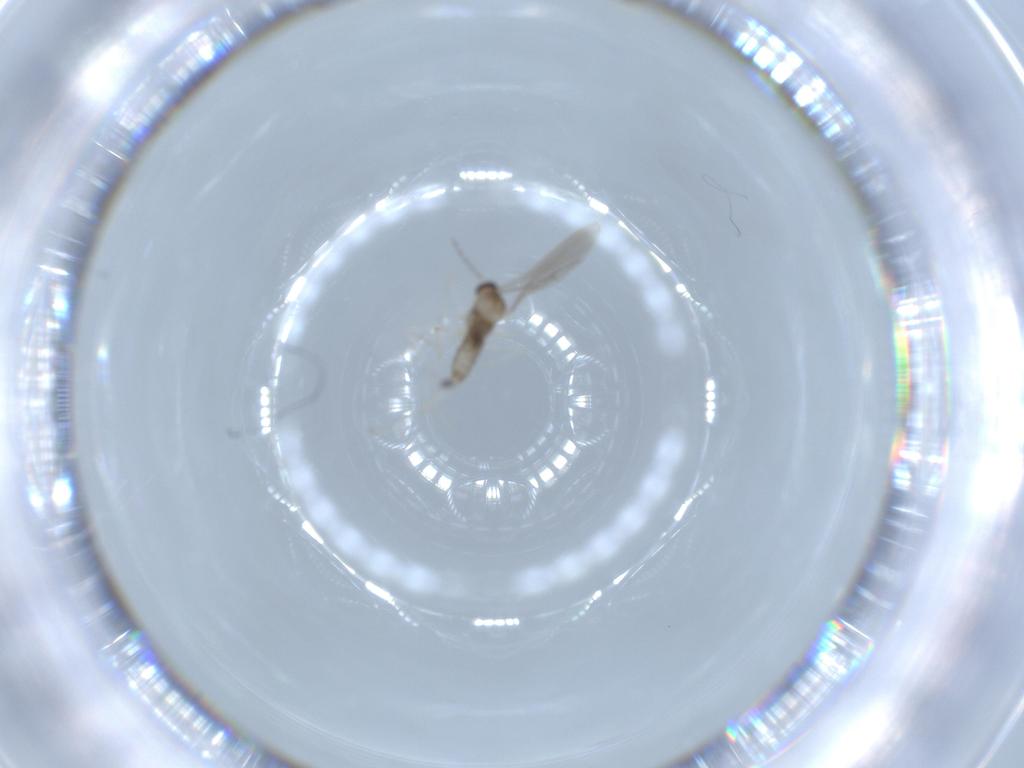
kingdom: Animalia
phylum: Arthropoda
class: Insecta
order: Diptera
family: Cecidomyiidae
